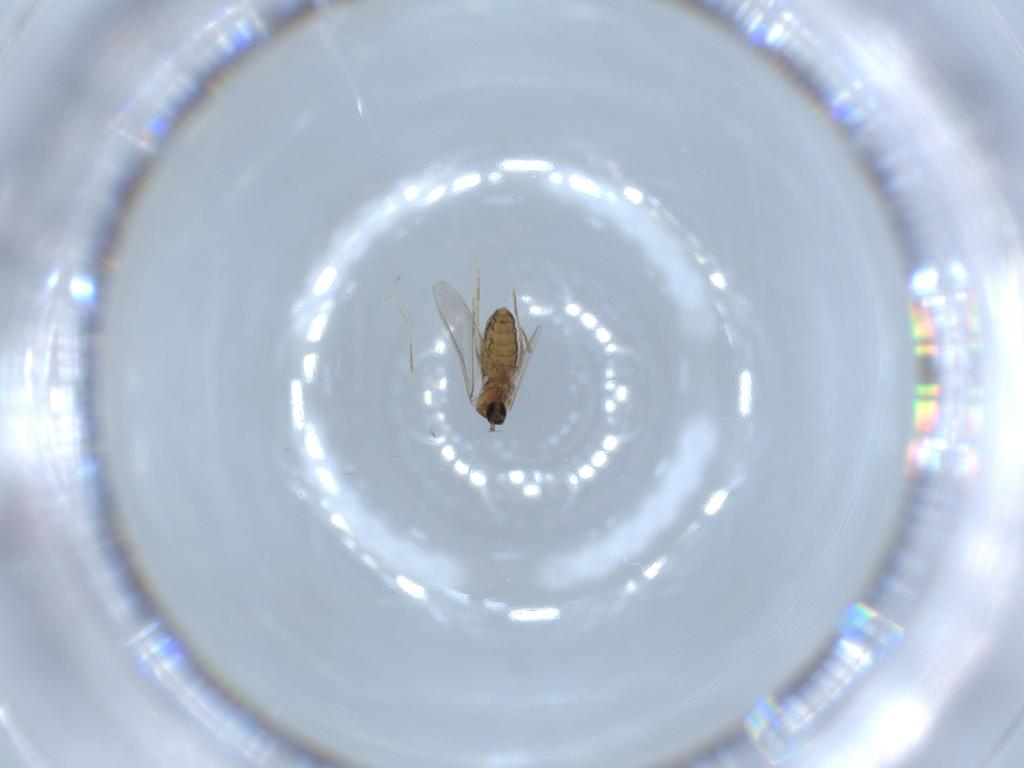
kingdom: Animalia
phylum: Arthropoda
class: Insecta
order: Diptera
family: Cecidomyiidae
